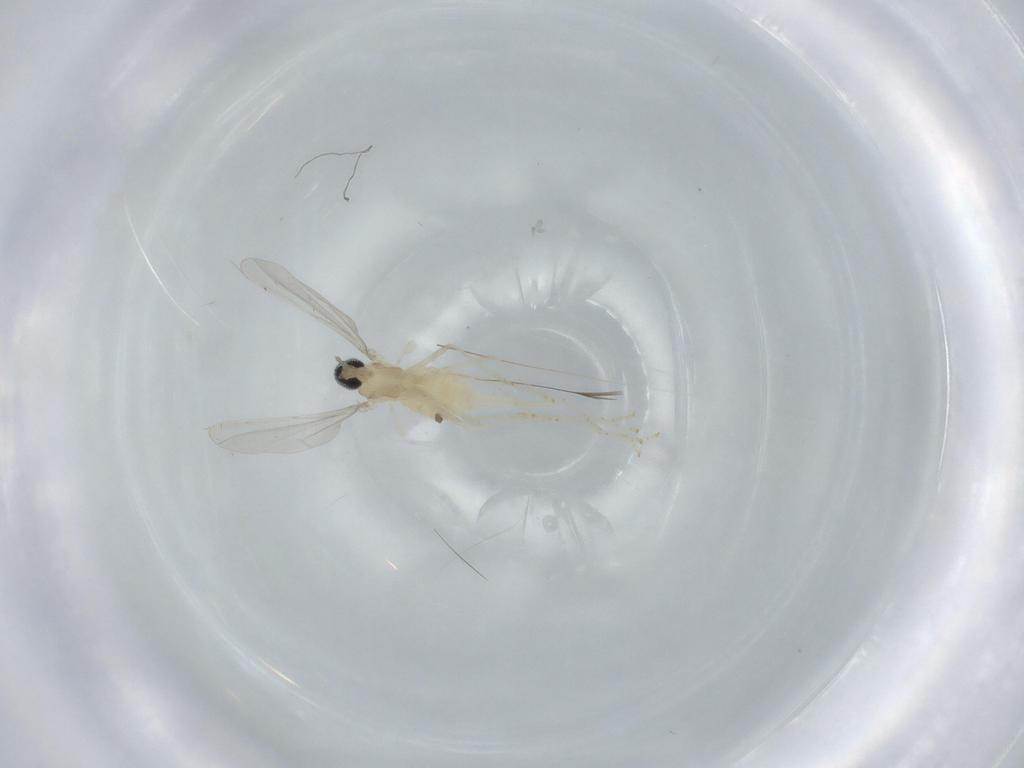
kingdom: Animalia
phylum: Arthropoda
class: Insecta
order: Diptera
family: Cecidomyiidae
